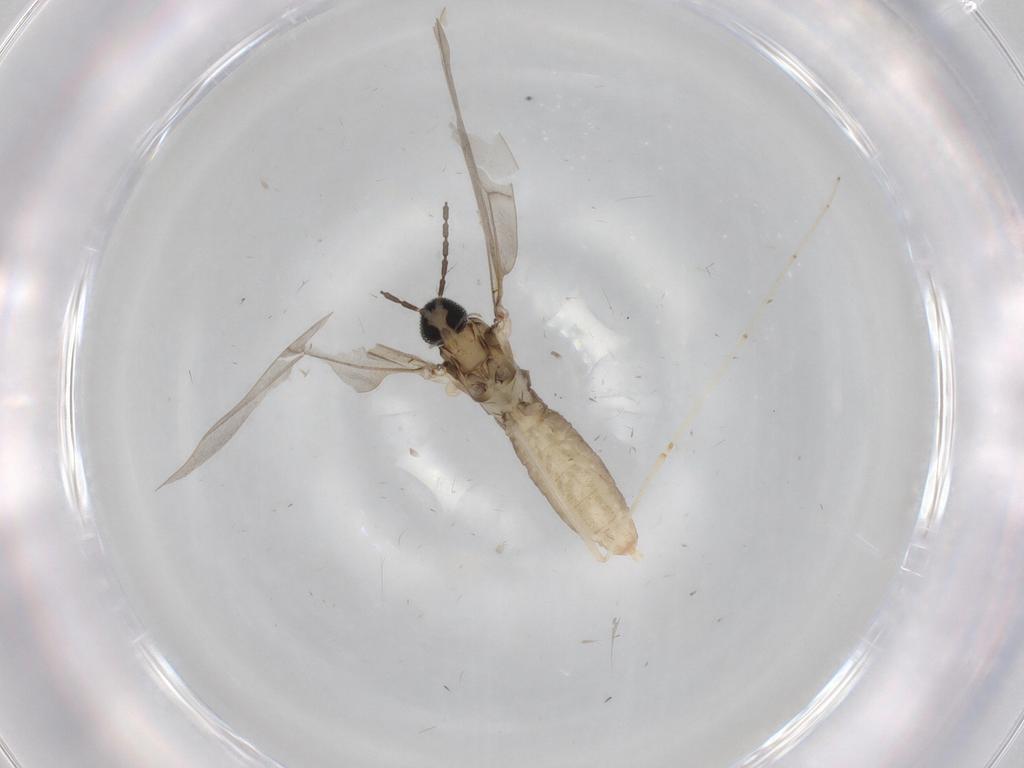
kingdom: Animalia
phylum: Arthropoda
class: Insecta
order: Diptera
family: Cecidomyiidae
